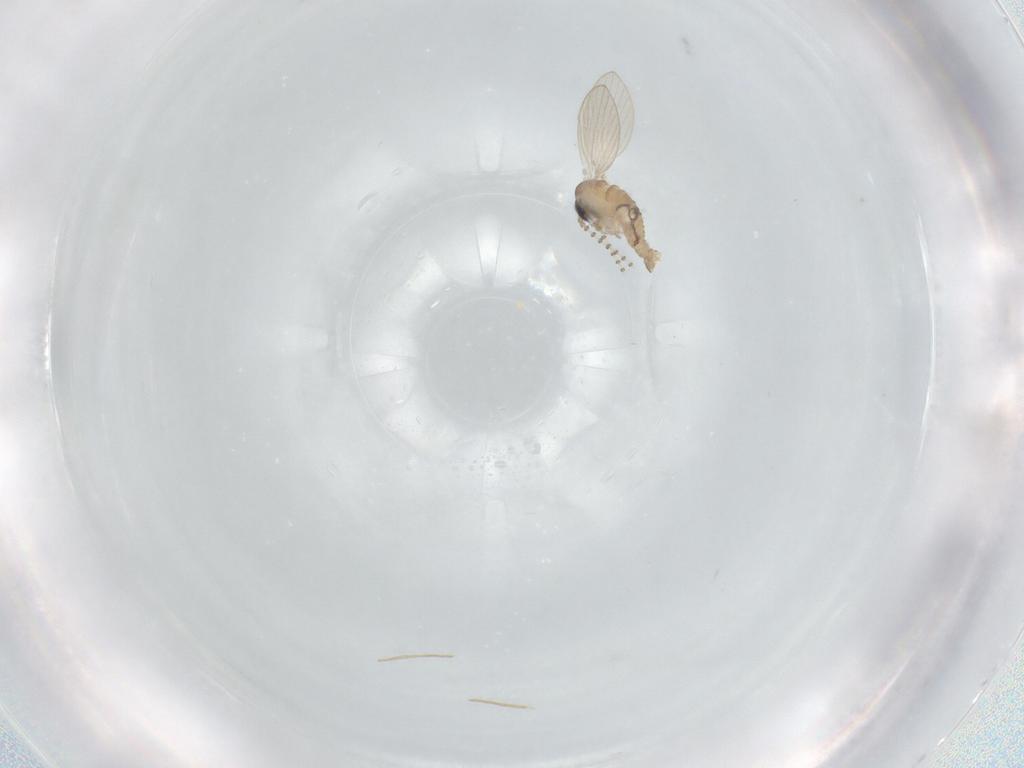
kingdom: Animalia
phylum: Arthropoda
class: Insecta
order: Diptera
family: Psychodidae
